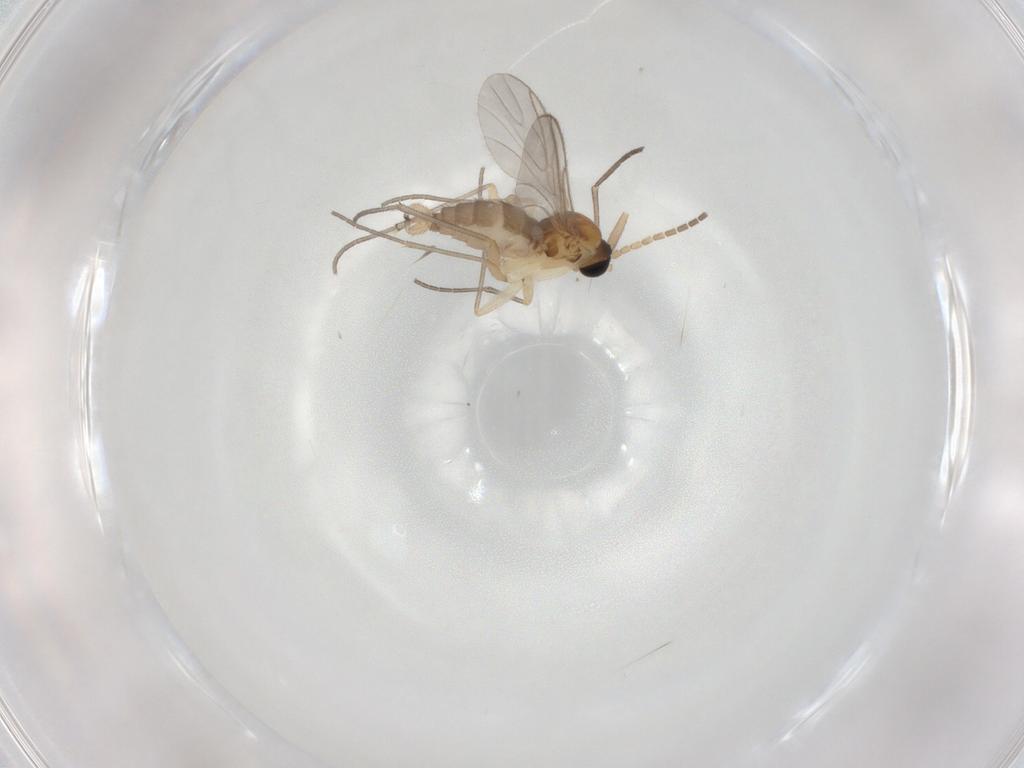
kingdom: Animalia
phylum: Arthropoda
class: Insecta
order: Diptera
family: Sciaridae
